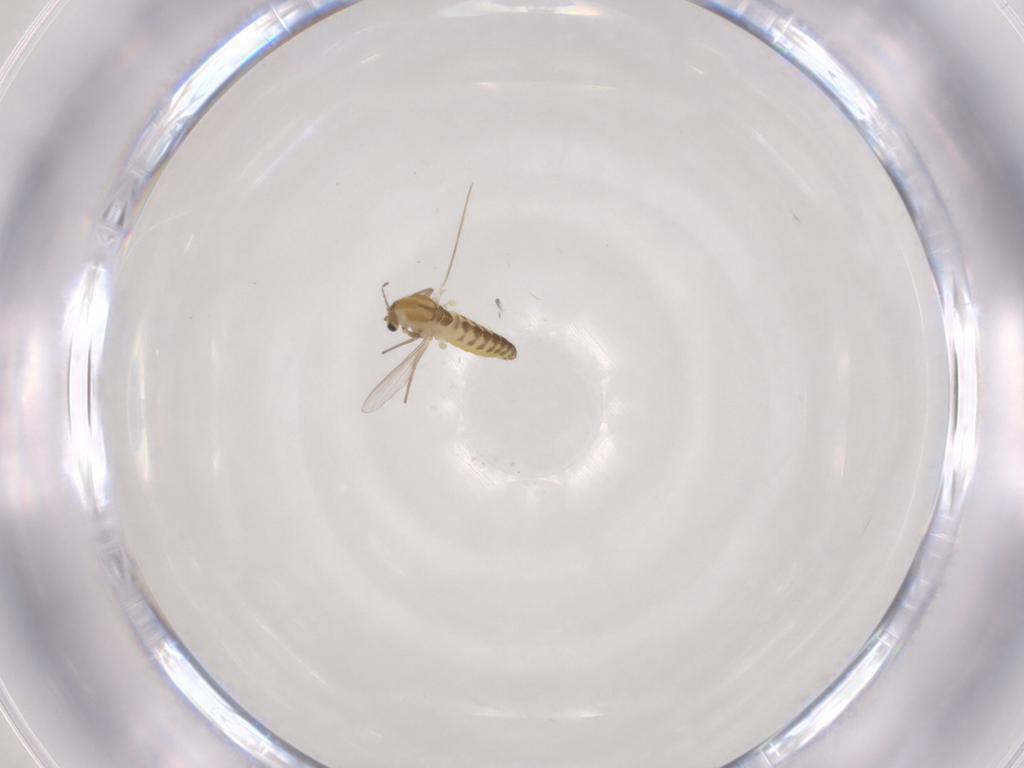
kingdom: Animalia
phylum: Arthropoda
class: Insecta
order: Diptera
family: Chironomidae
